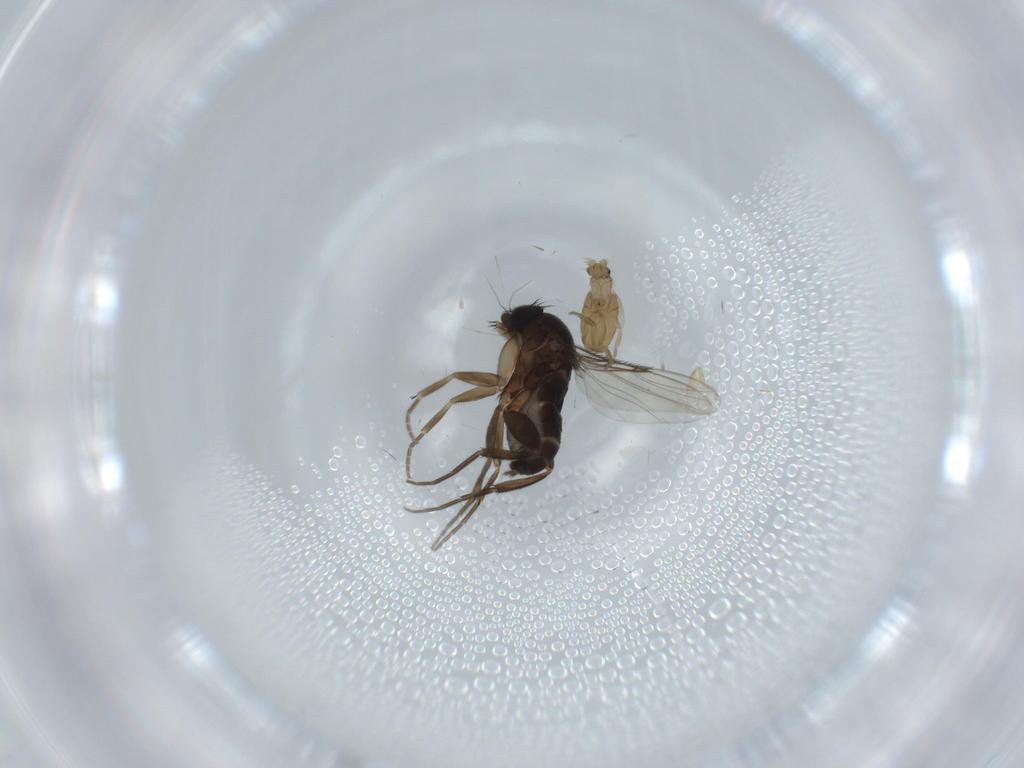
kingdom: Animalia
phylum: Arthropoda
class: Insecta
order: Diptera
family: Phoridae
